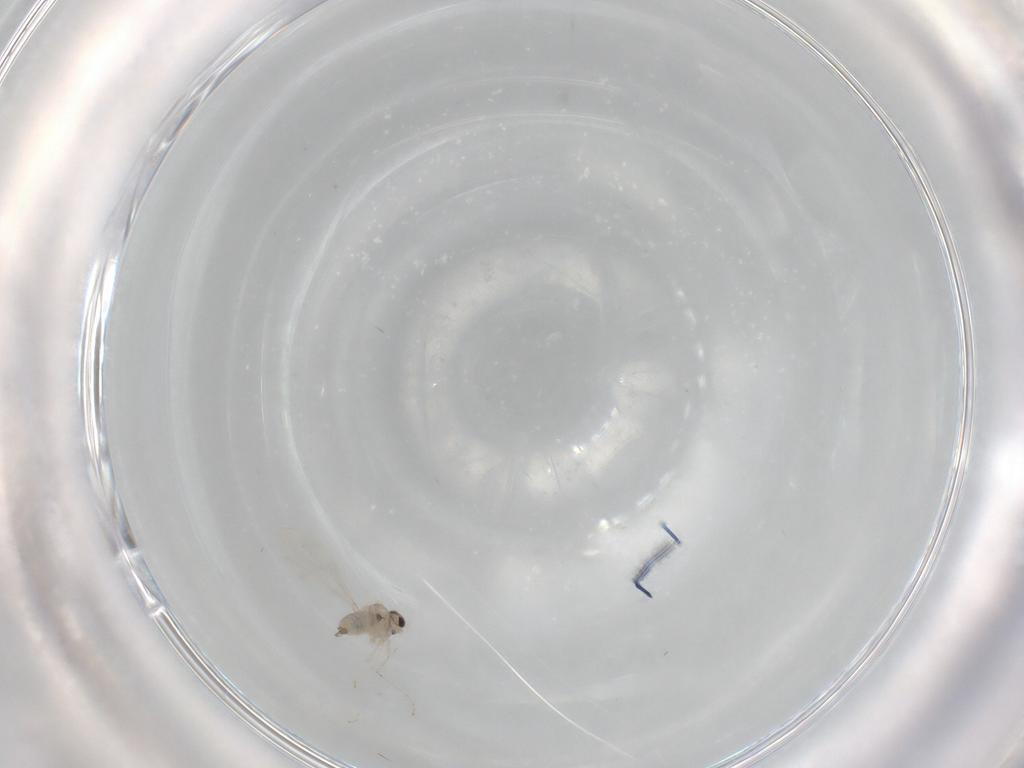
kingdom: Animalia
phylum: Arthropoda
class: Insecta
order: Diptera
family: Cecidomyiidae
